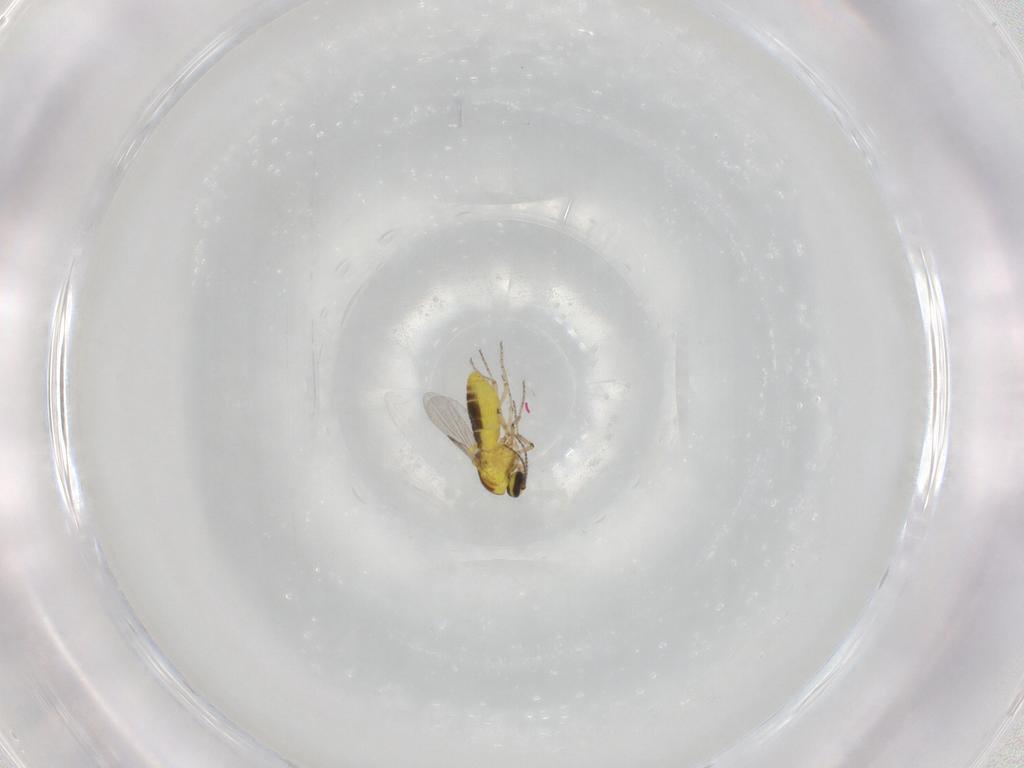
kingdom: Animalia
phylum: Arthropoda
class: Insecta
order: Diptera
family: Ceratopogonidae
